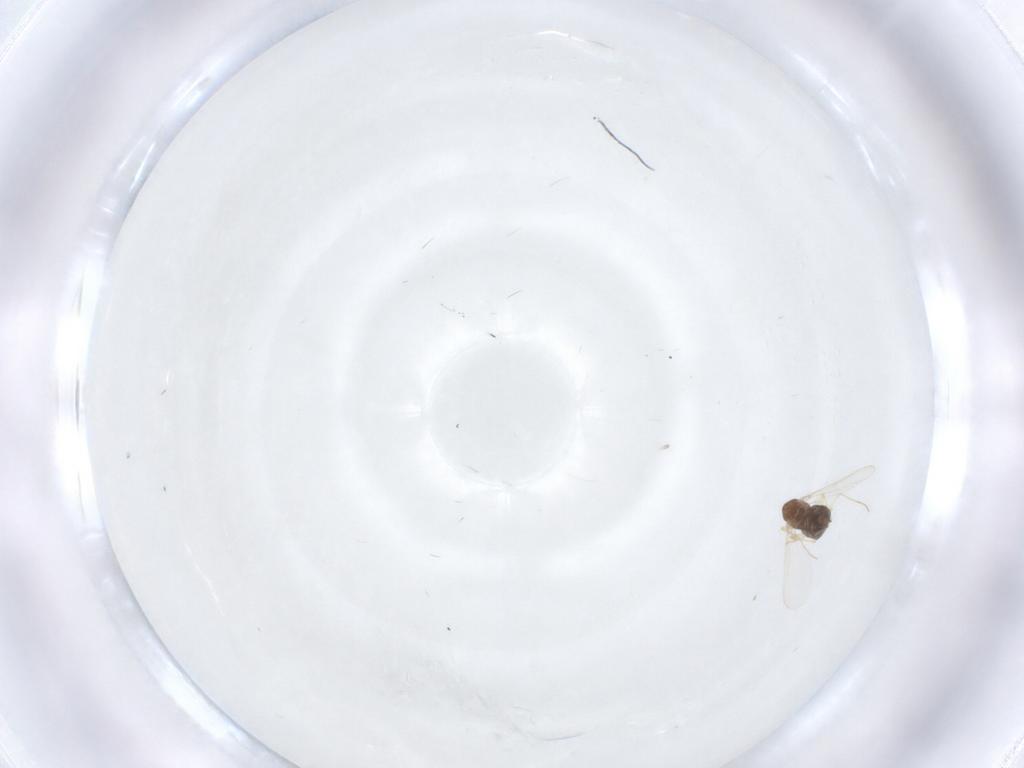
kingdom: Animalia
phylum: Arthropoda
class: Insecta
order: Diptera
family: Chironomidae
